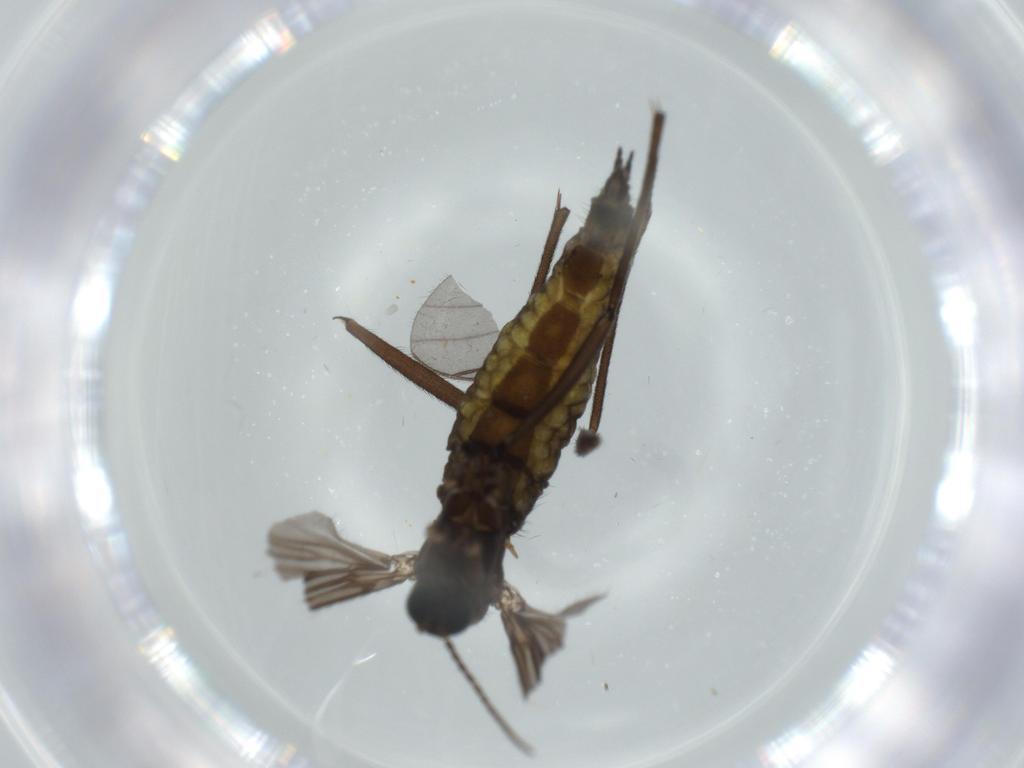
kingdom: Animalia
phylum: Arthropoda
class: Insecta
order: Diptera
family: Sciaridae
